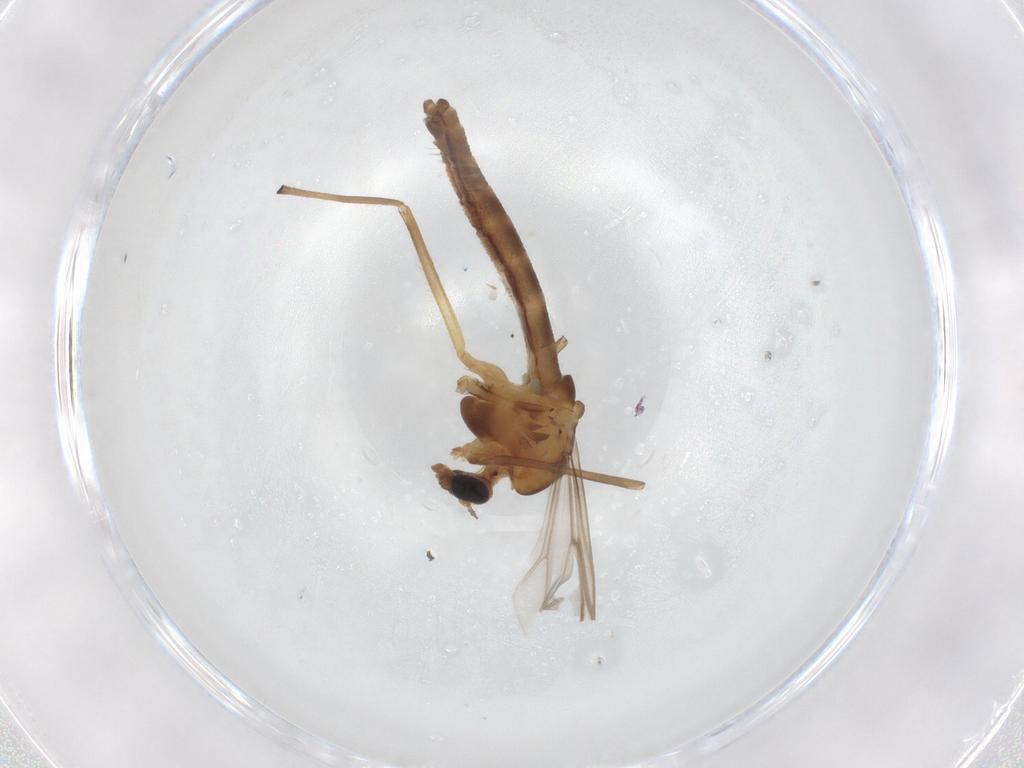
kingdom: Animalia
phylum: Arthropoda
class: Insecta
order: Diptera
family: Chironomidae
